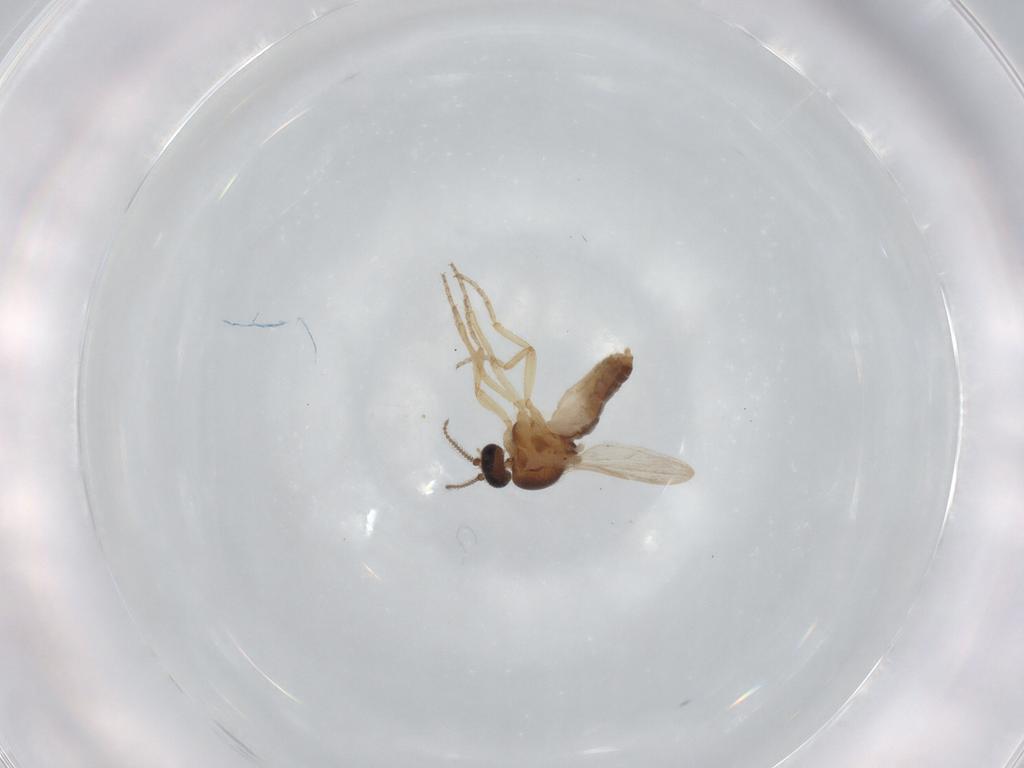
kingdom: Animalia
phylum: Arthropoda
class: Insecta
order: Diptera
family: Ceratopogonidae
